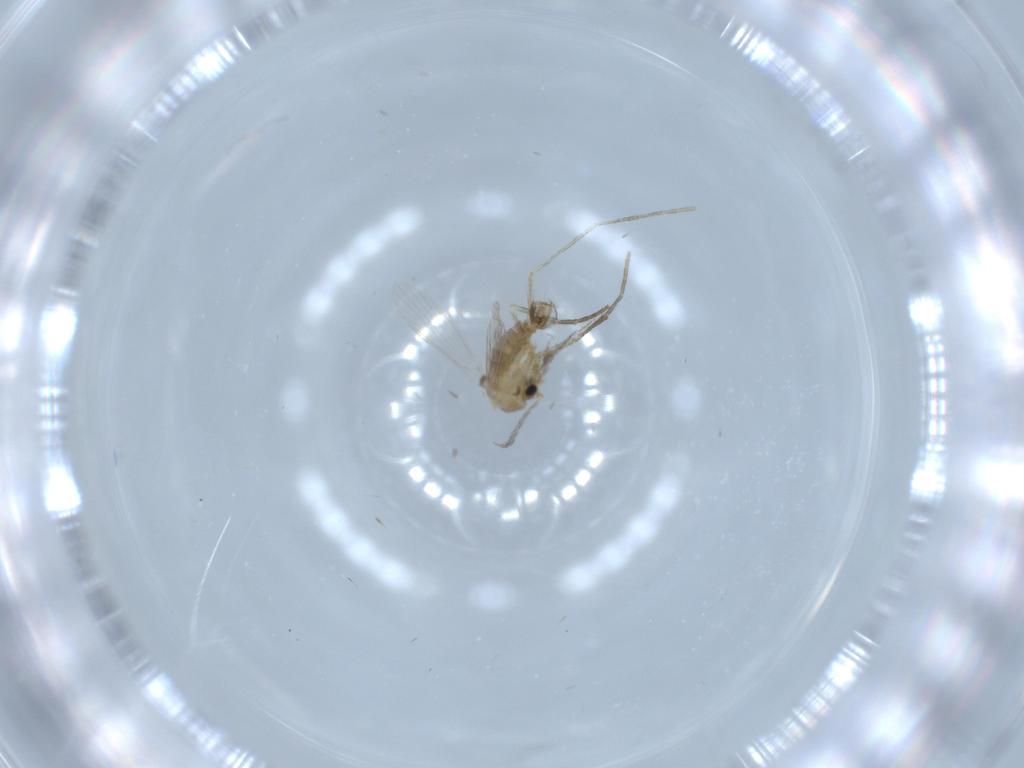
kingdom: Animalia
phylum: Arthropoda
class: Insecta
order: Diptera
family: Psychodidae
